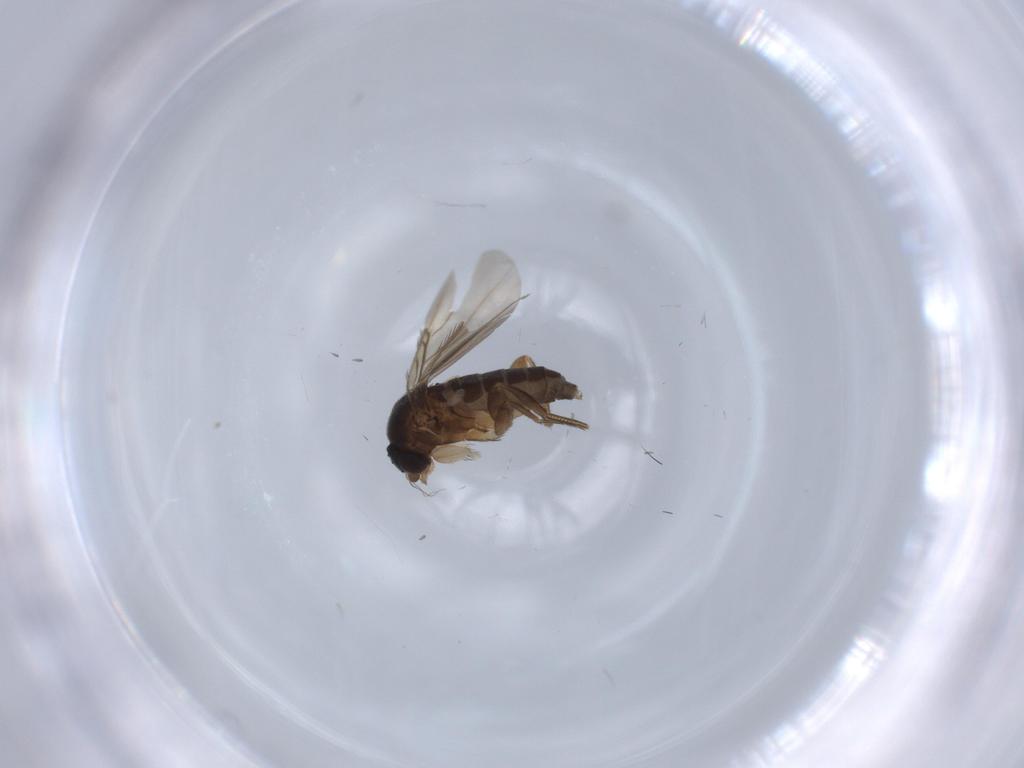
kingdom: Animalia
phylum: Arthropoda
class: Insecta
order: Diptera
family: Phoridae
